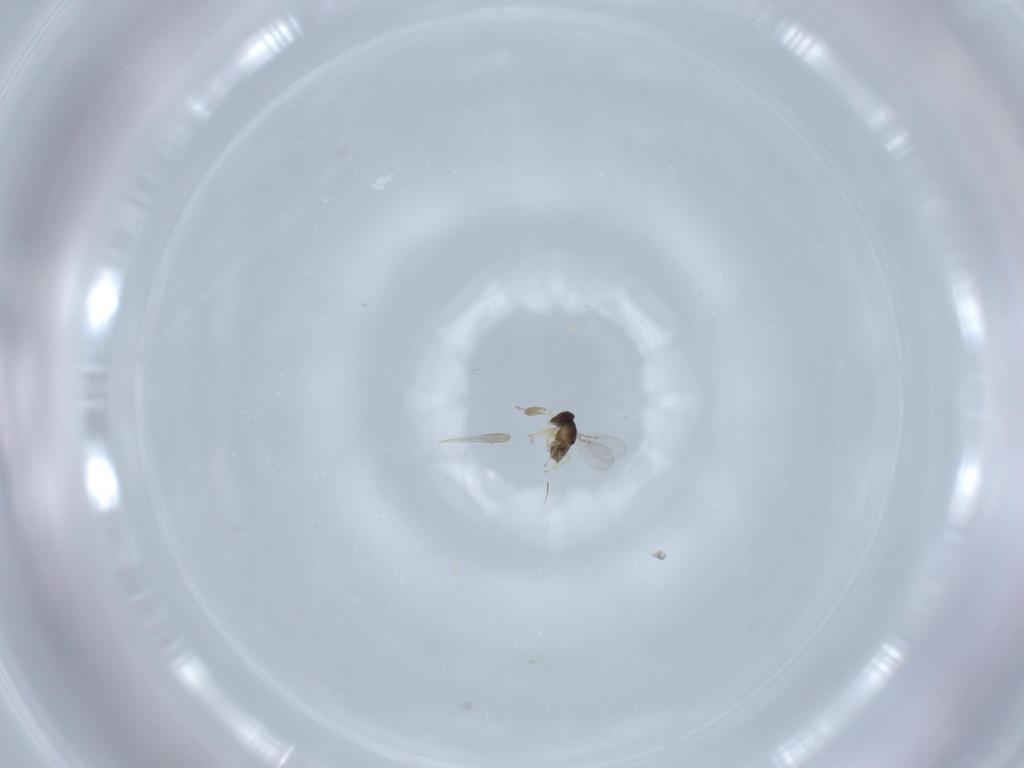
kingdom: Animalia
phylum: Arthropoda
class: Insecta
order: Hymenoptera
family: Encyrtidae
